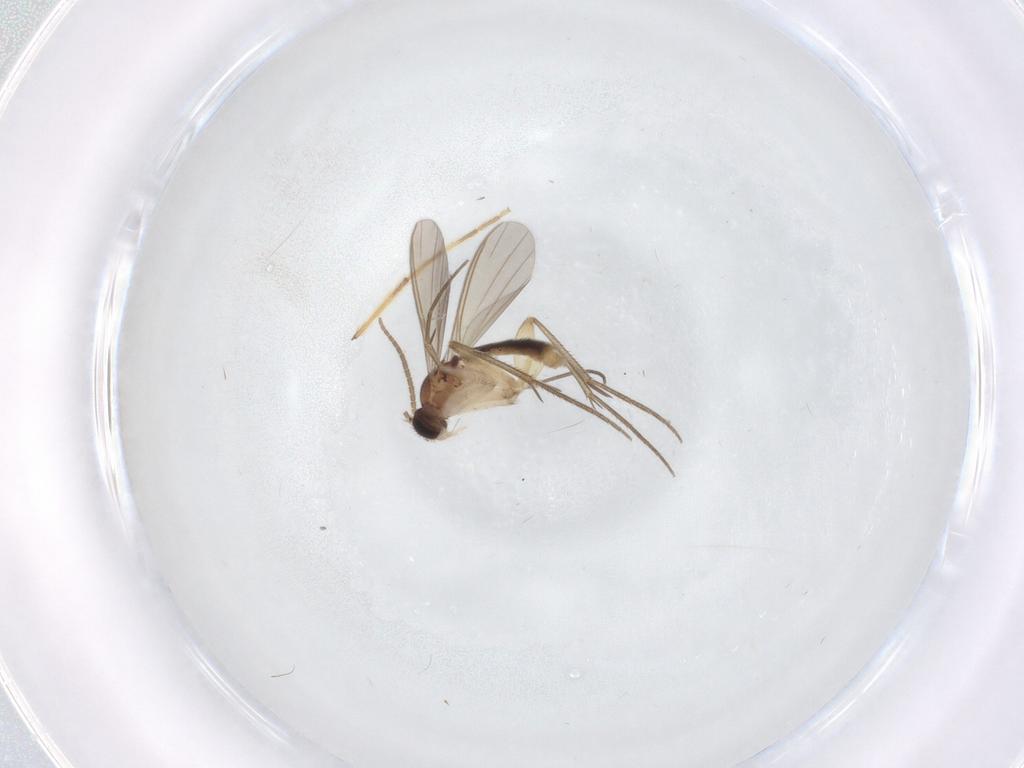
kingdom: Animalia
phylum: Arthropoda
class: Insecta
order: Diptera
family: Mycetophilidae
